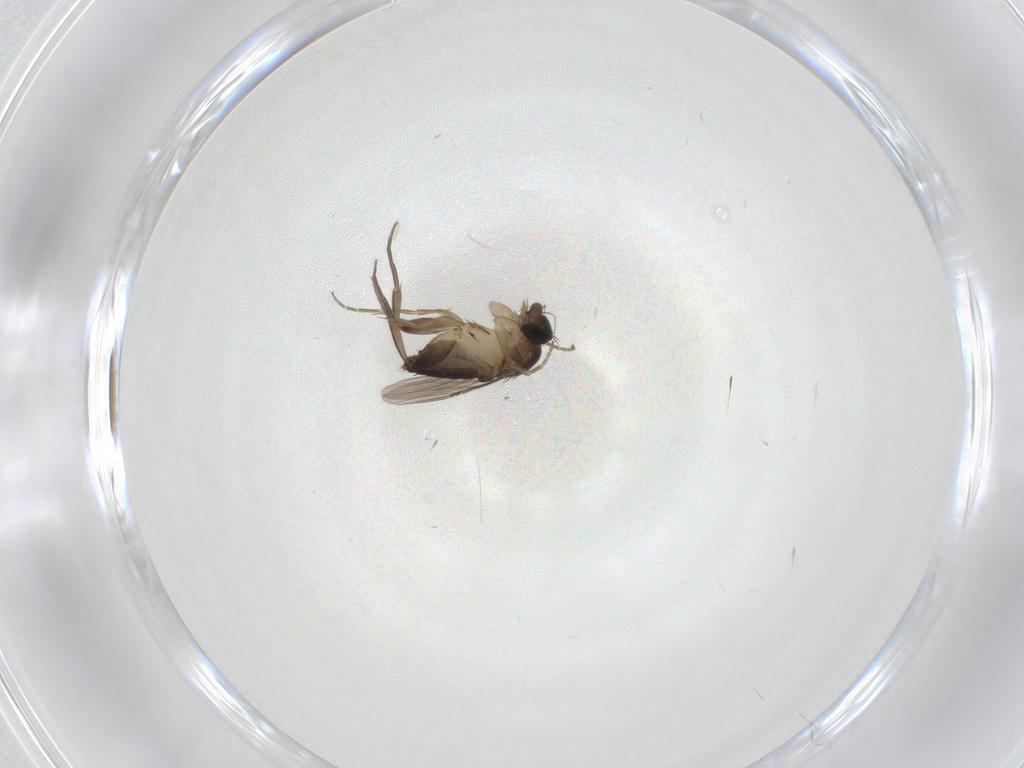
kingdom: Animalia
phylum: Arthropoda
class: Insecta
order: Diptera
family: Phoridae
